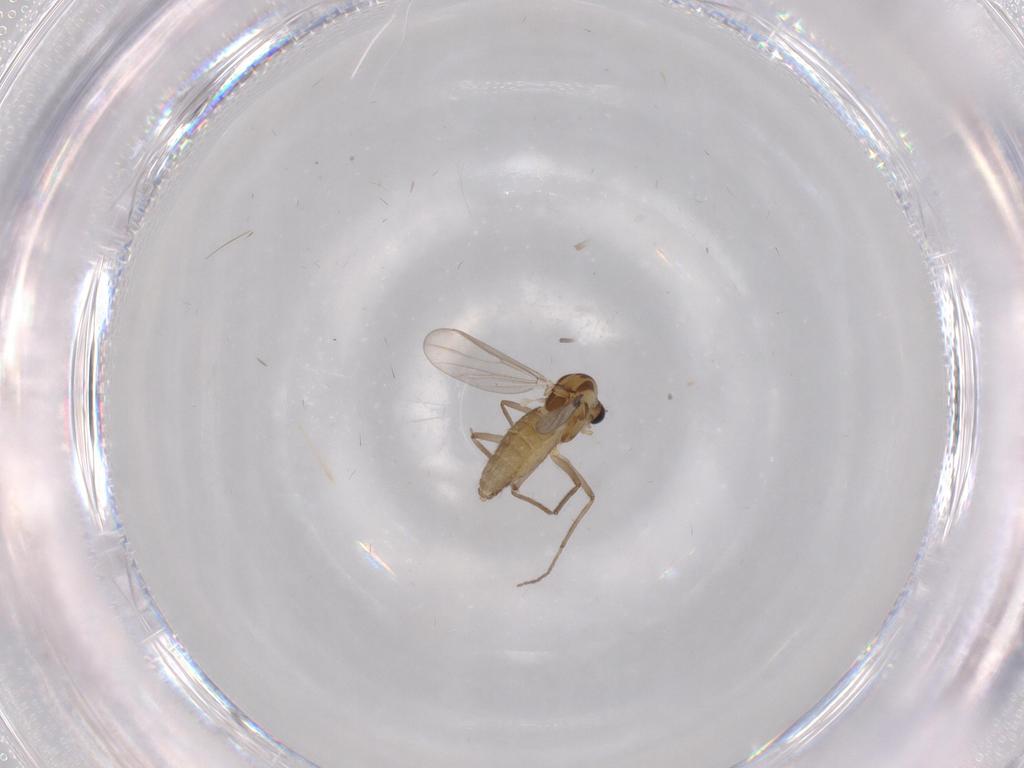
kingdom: Animalia
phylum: Arthropoda
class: Insecta
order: Diptera
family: Chironomidae
